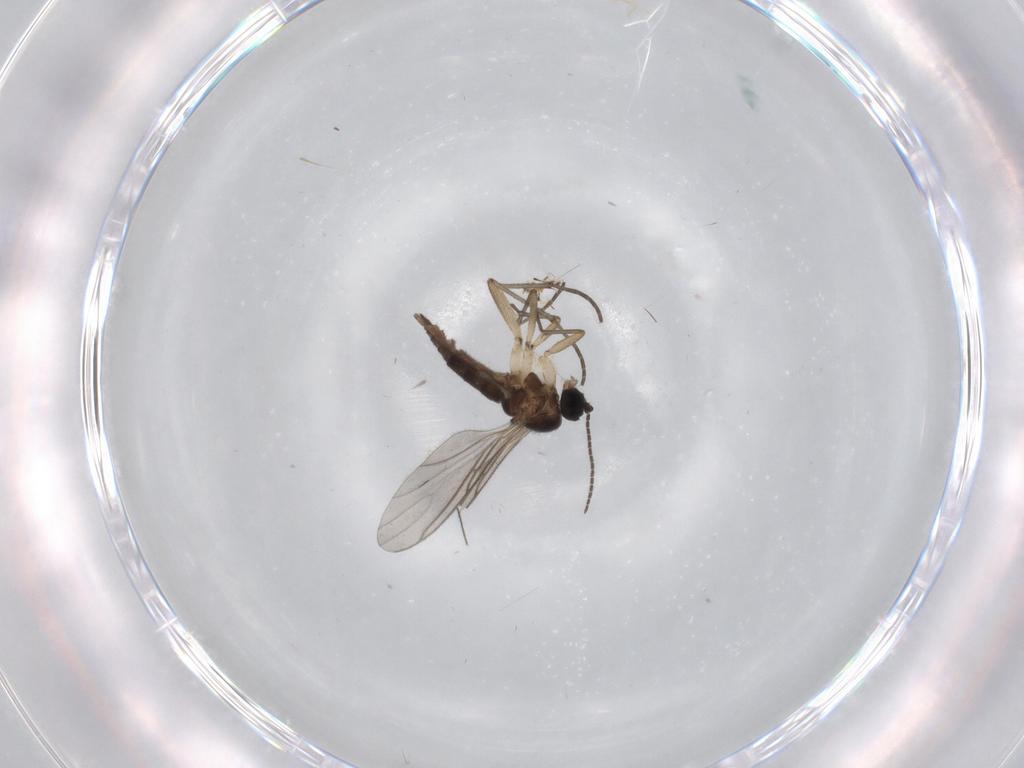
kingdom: Animalia
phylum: Arthropoda
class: Insecta
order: Diptera
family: Sciaridae
